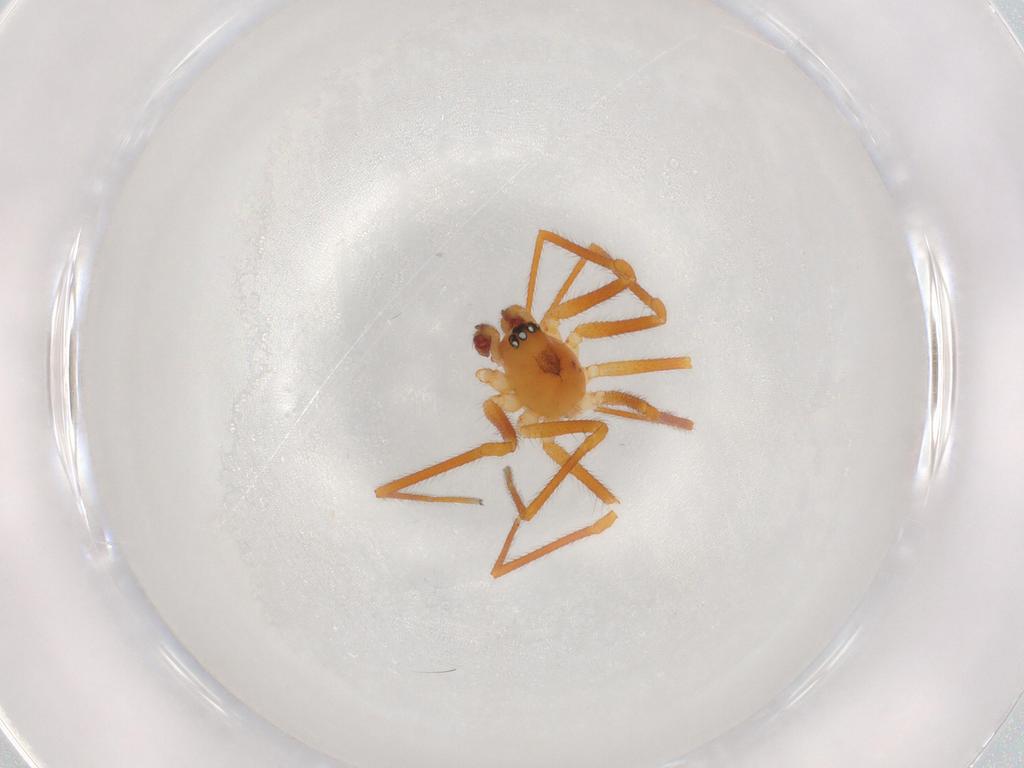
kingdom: Animalia
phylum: Arthropoda
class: Arachnida
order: Araneae
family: Linyphiidae
